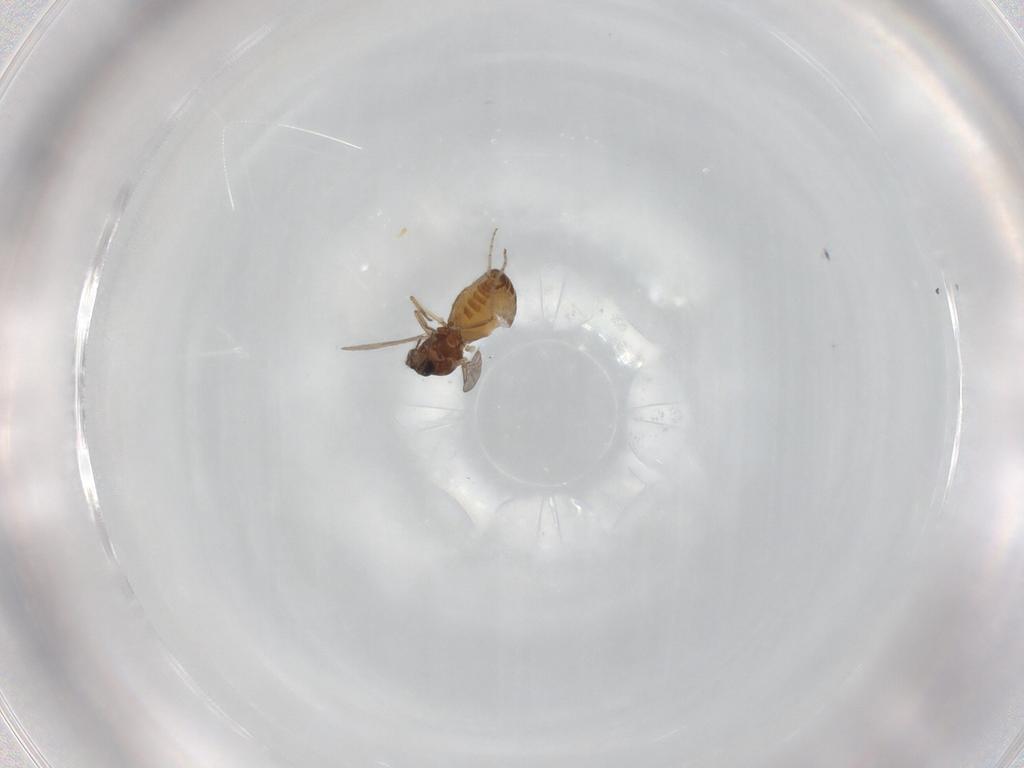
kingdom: Animalia
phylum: Arthropoda
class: Insecta
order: Diptera
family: Ceratopogonidae
